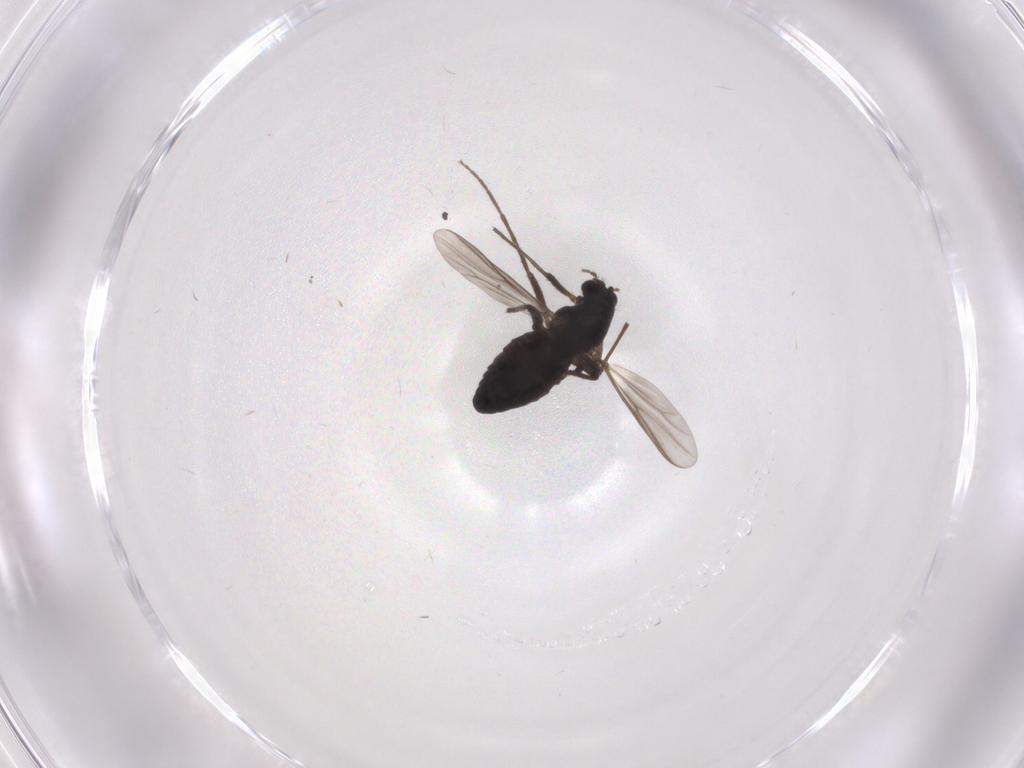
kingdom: Animalia
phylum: Arthropoda
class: Insecta
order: Diptera
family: Chironomidae
